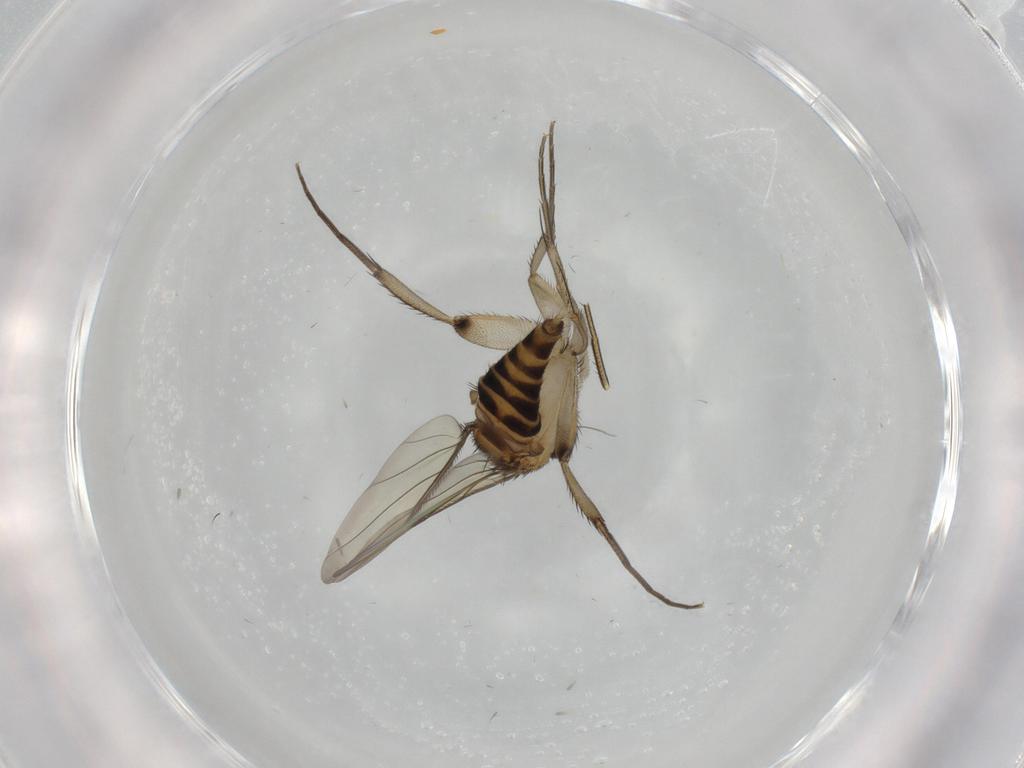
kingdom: Animalia
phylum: Arthropoda
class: Insecta
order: Diptera
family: Phoridae
